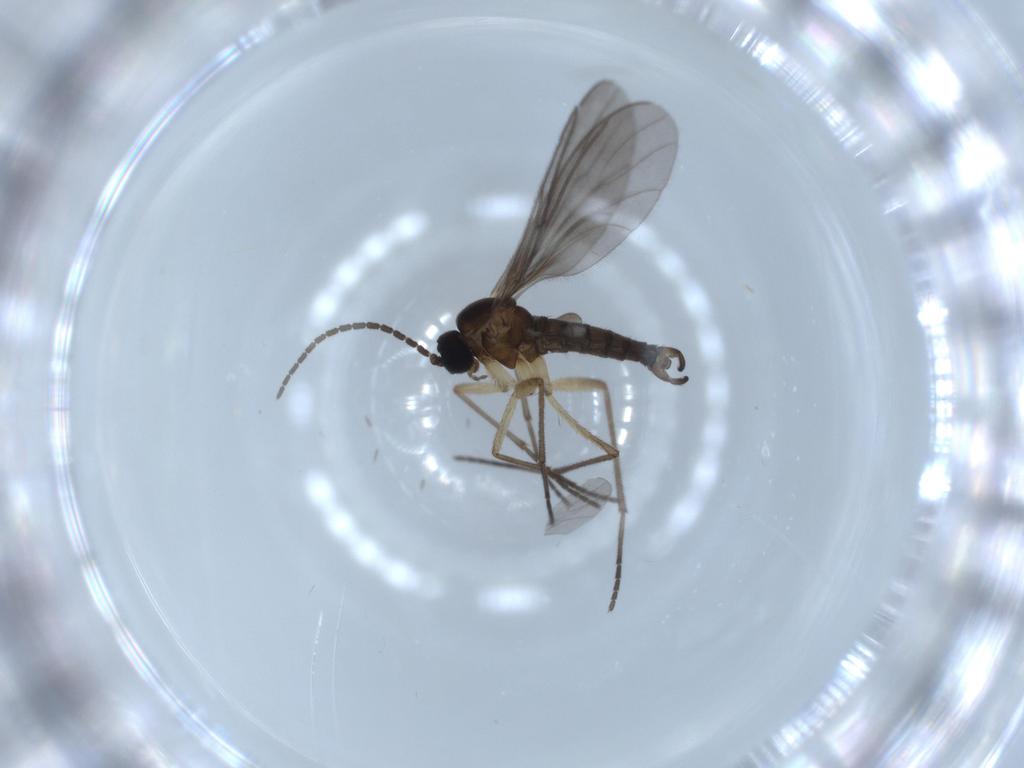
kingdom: Animalia
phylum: Arthropoda
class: Insecta
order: Diptera
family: Sciaridae
